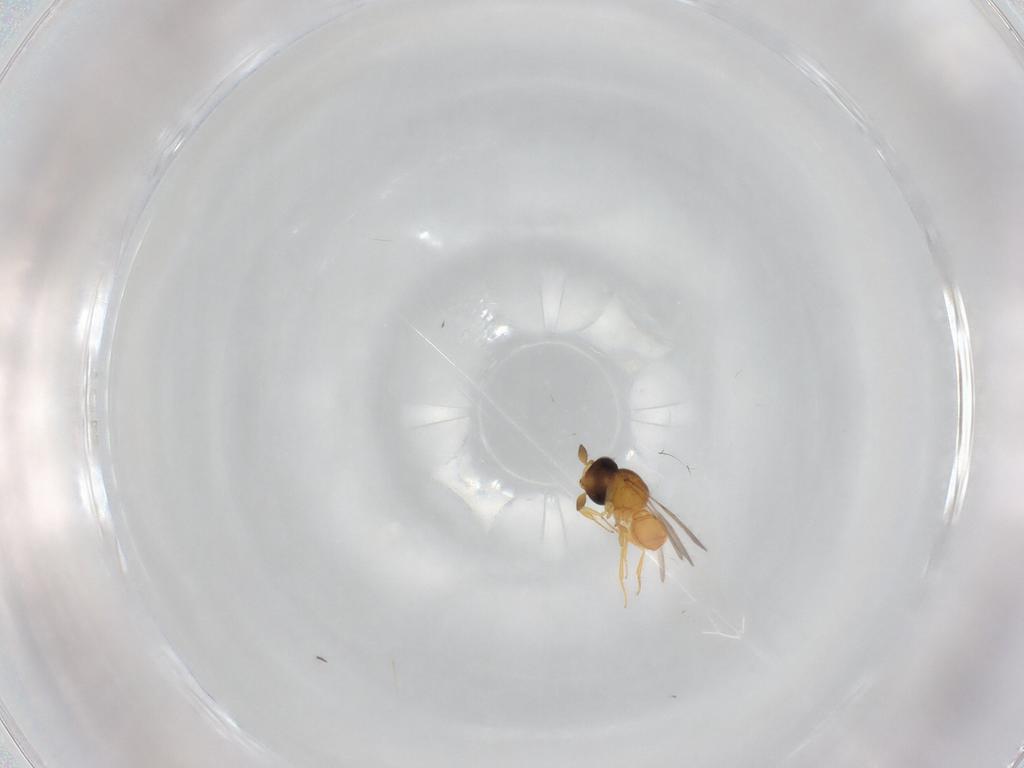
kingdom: Animalia
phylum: Arthropoda
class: Insecta
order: Hymenoptera
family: Scelionidae
